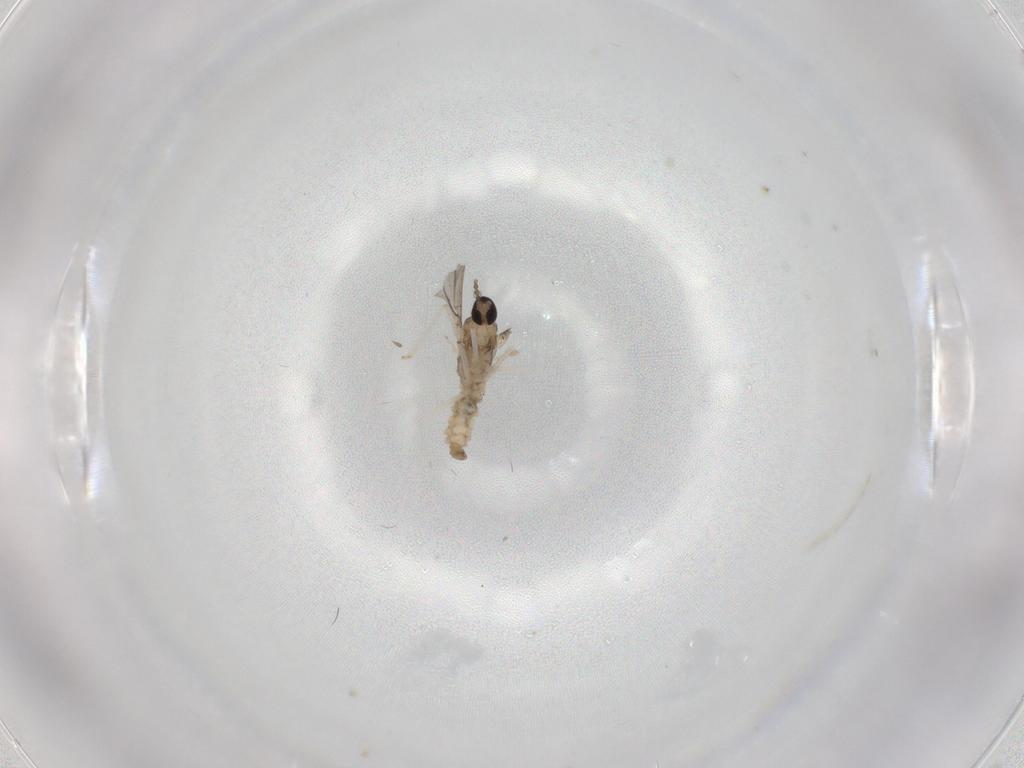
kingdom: Animalia
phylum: Arthropoda
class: Insecta
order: Diptera
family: Cecidomyiidae
